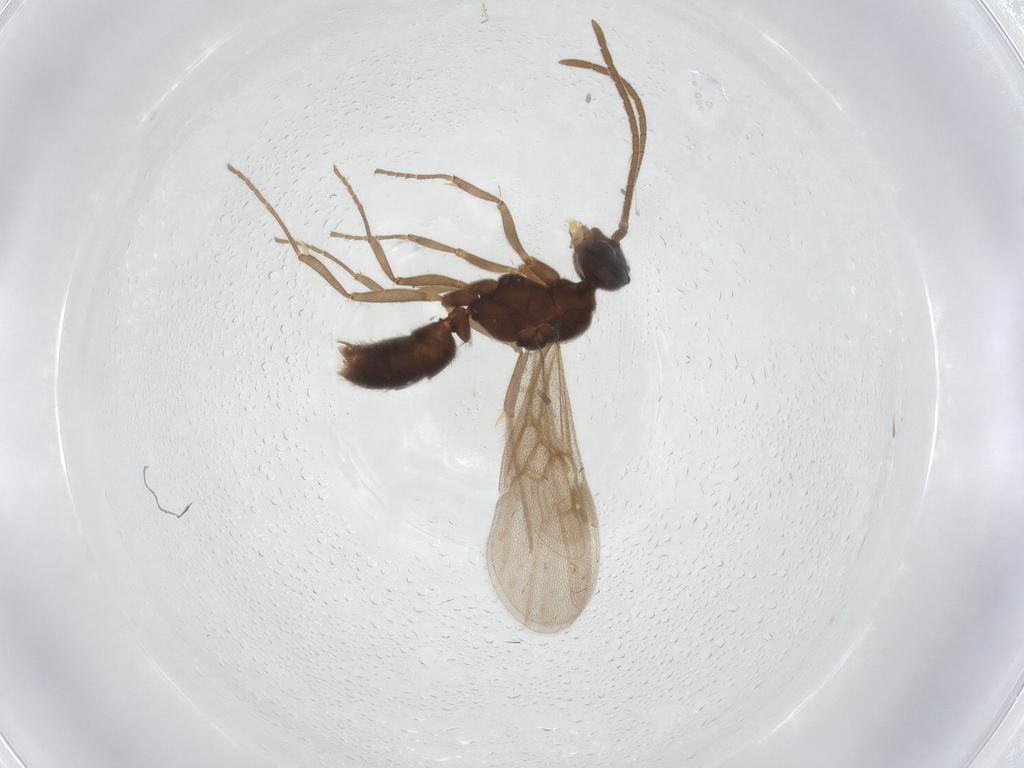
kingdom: Animalia
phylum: Arthropoda
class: Insecta
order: Hymenoptera
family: Formicidae
